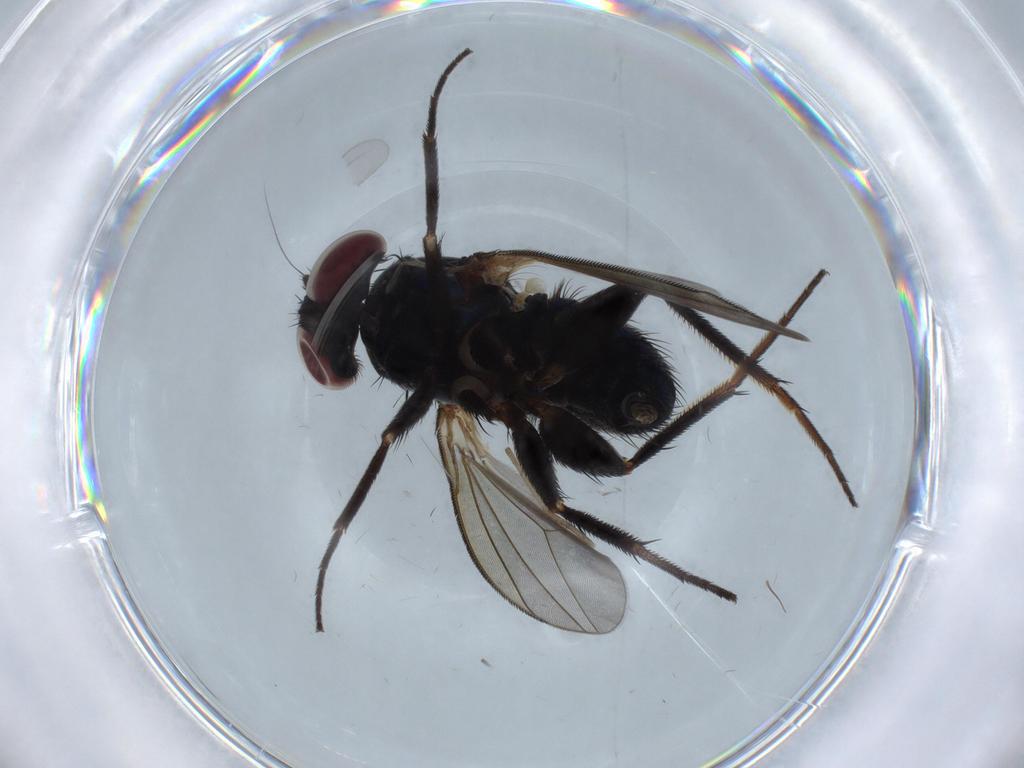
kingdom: Animalia
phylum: Arthropoda
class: Insecta
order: Diptera
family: Dolichopodidae
